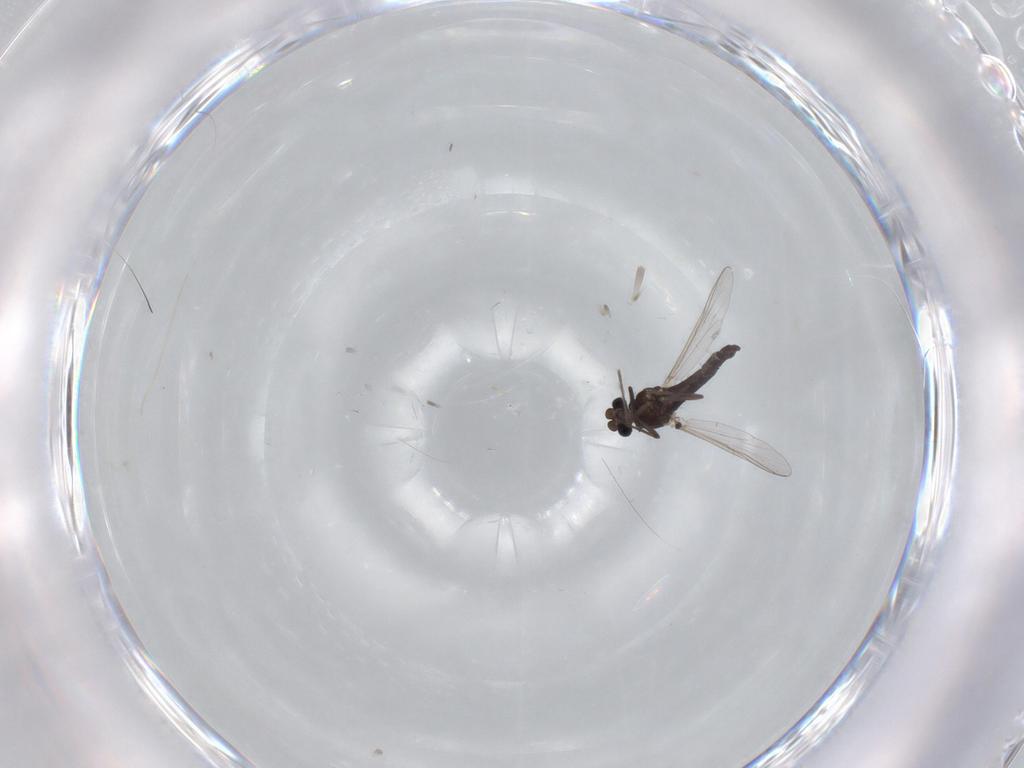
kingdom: Animalia
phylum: Arthropoda
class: Insecta
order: Diptera
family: Chironomidae
